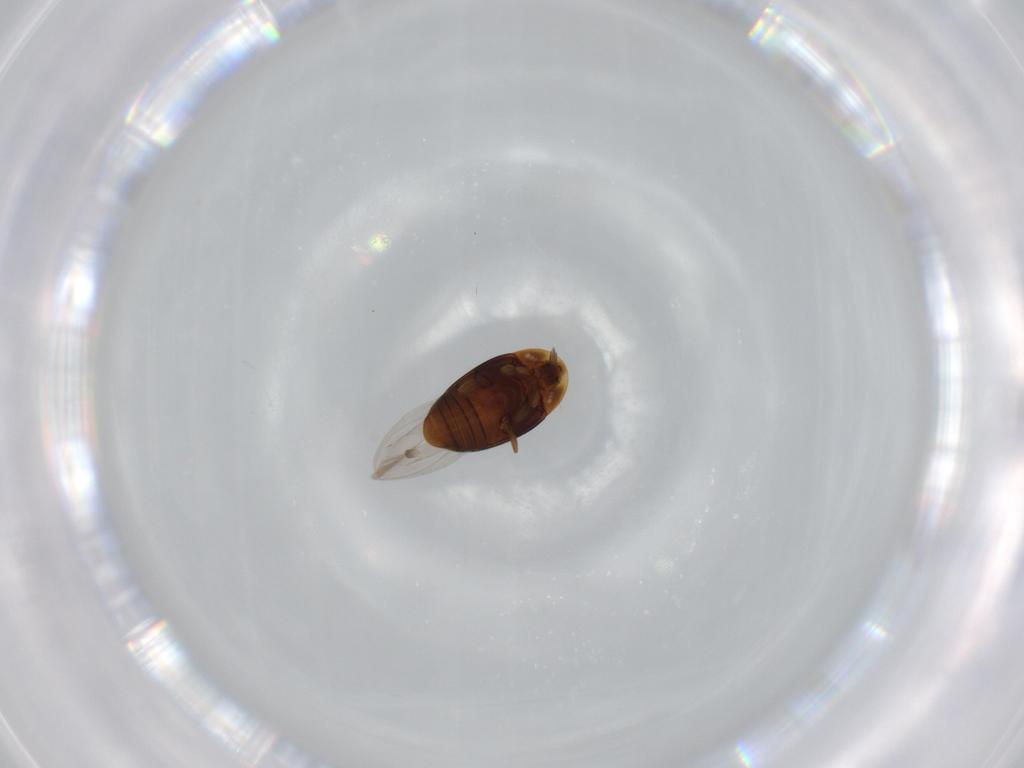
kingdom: Animalia
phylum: Arthropoda
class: Insecta
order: Coleoptera
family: Corylophidae
